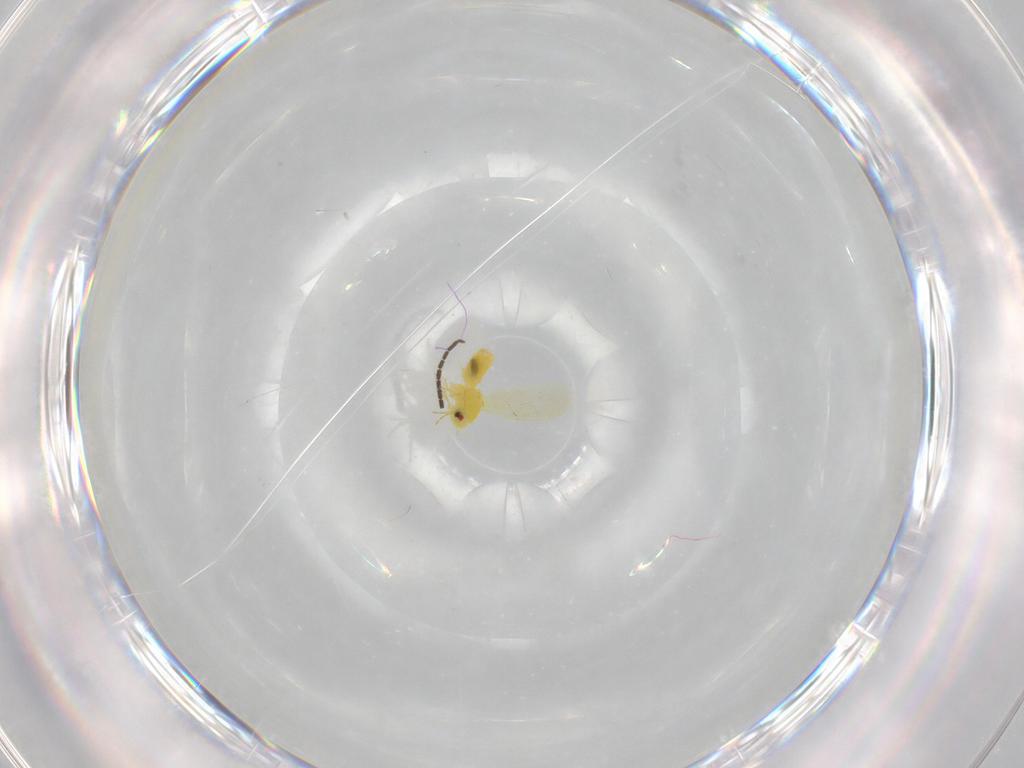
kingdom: Animalia
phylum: Arthropoda
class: Insecta
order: Hemiptera
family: Aleyrodidae
